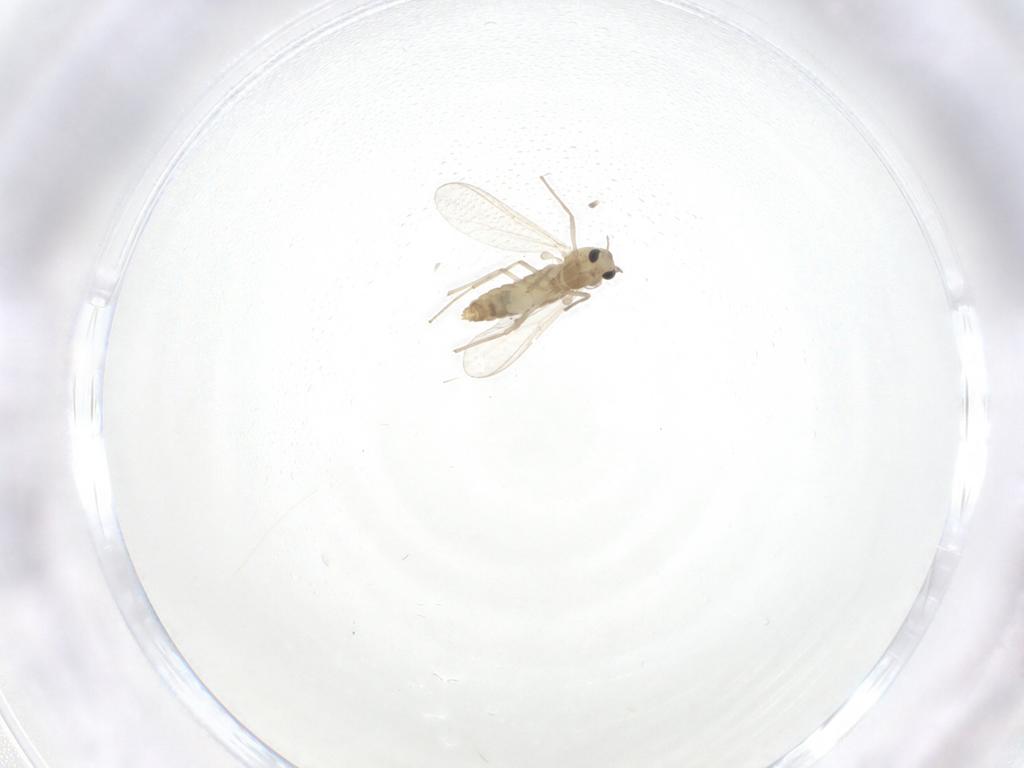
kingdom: Animalia
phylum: Arthropoda
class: Insecta
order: Diptera
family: Chironomidae
